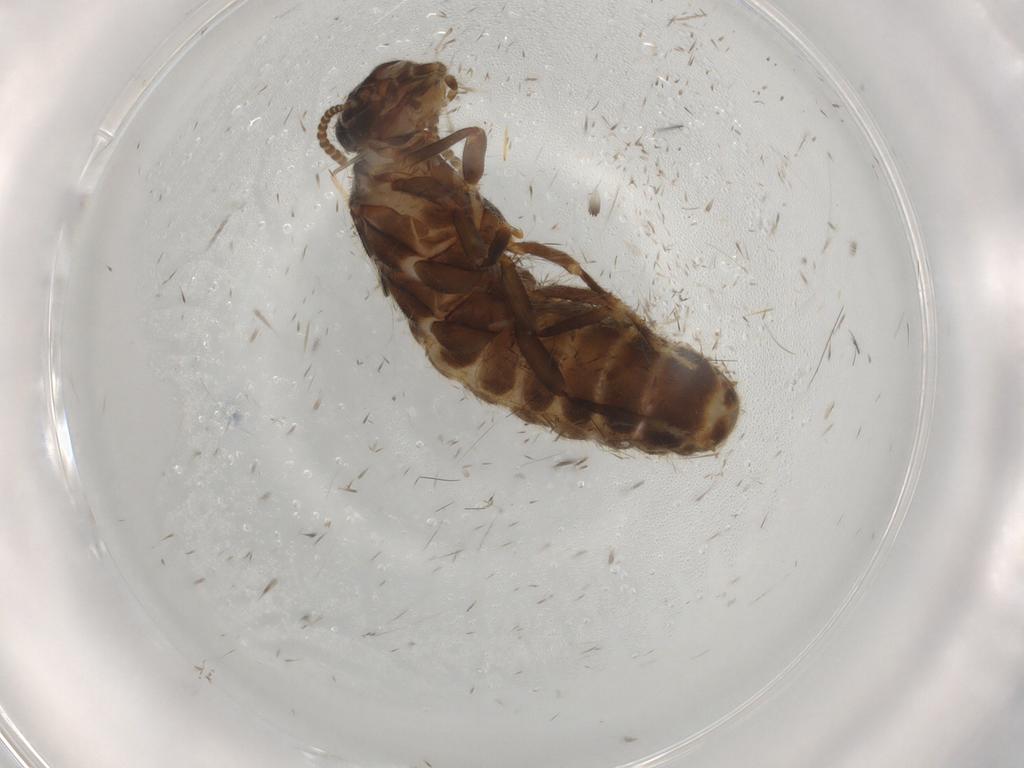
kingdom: Animalia
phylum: Arthropoda
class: Insecta
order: Blattodea
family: Termitidae
